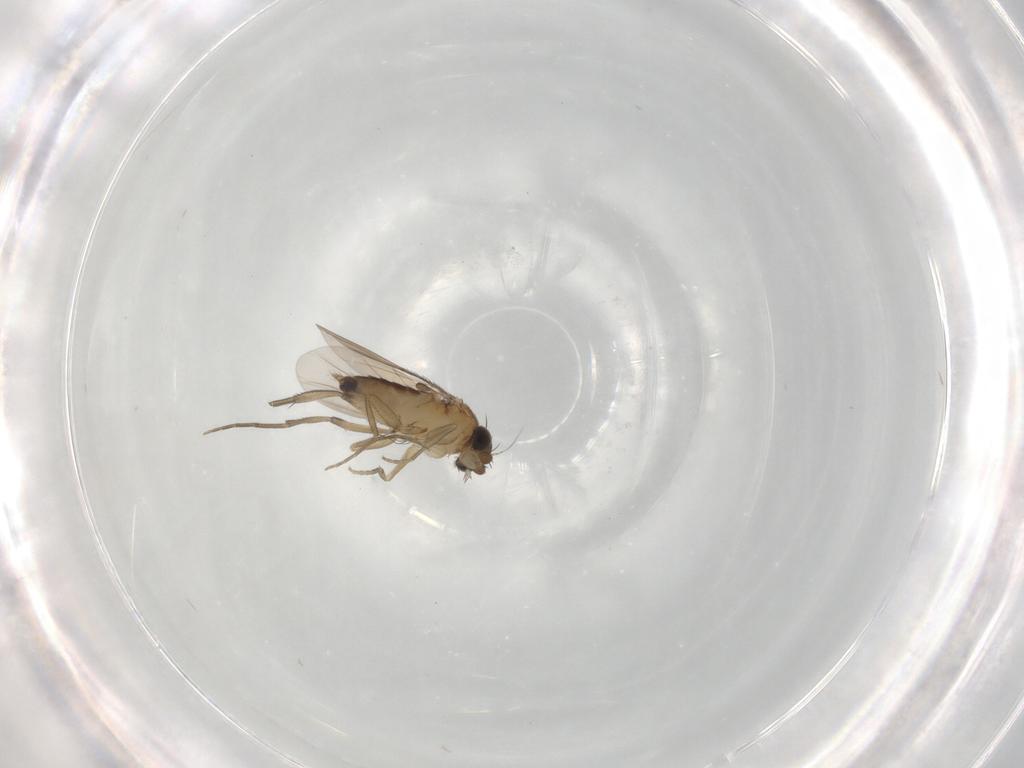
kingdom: Animalia
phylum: Arthropoda
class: Insecta
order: Diptera
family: Phoridae
